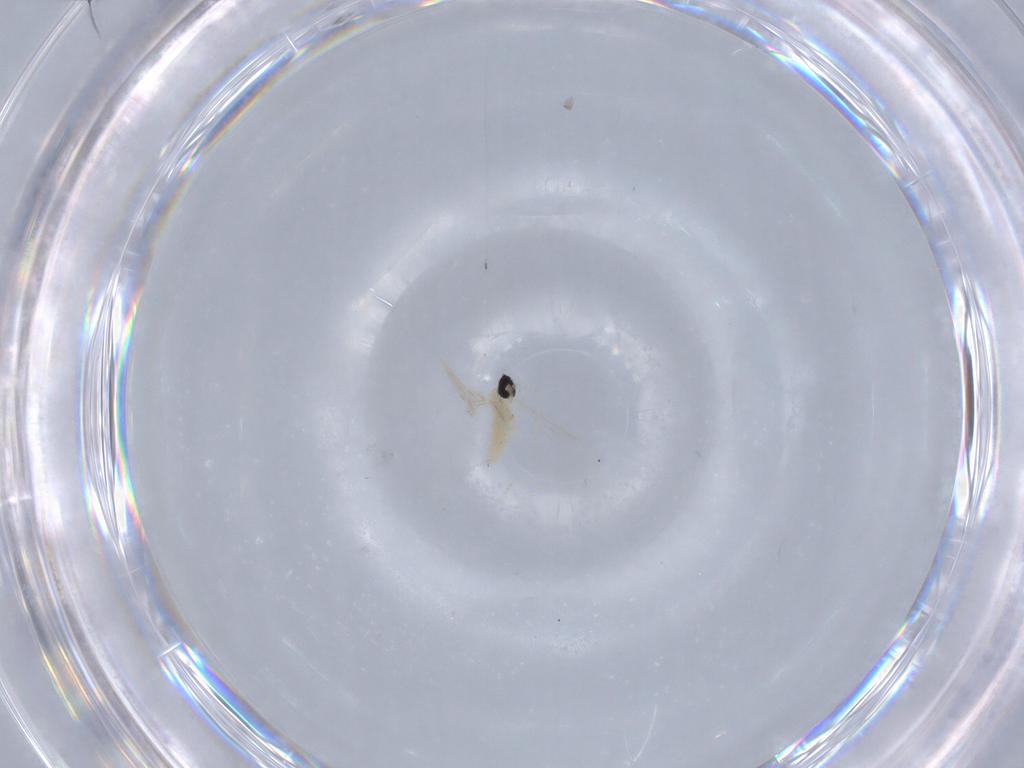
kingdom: Animalia
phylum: Arthropoda
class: Insecta
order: Diptera
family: Cecidomyiidae
